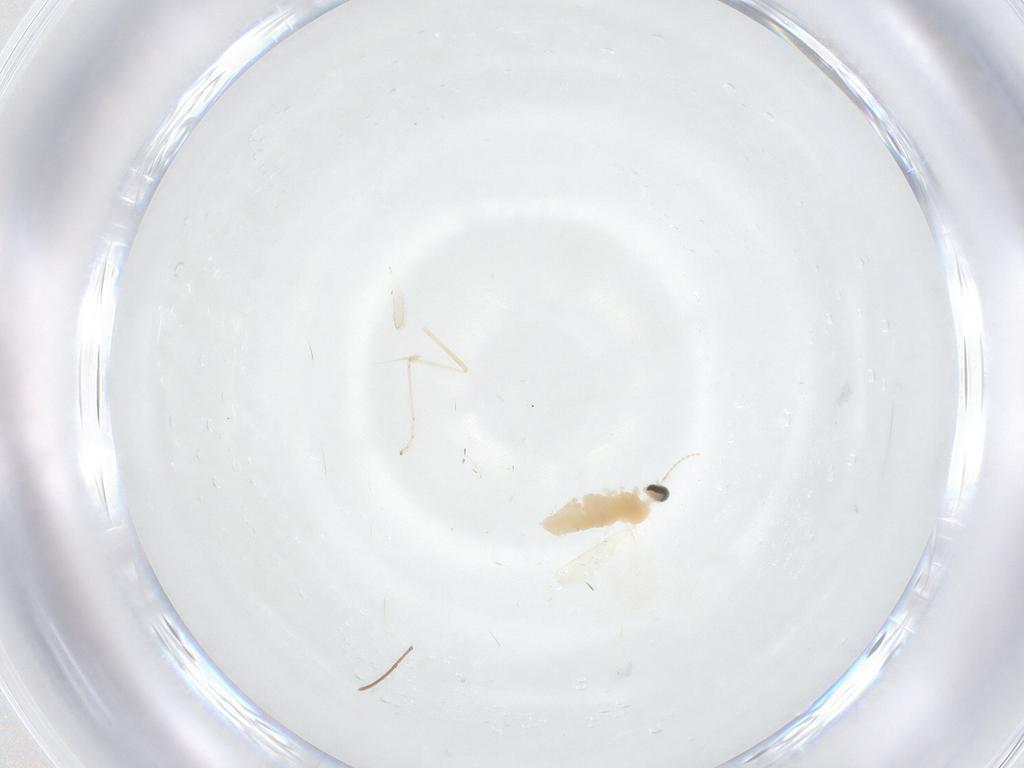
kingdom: Animalia
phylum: Arthropoda
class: Insecta
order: Diptera
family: Cecidomyiidae
